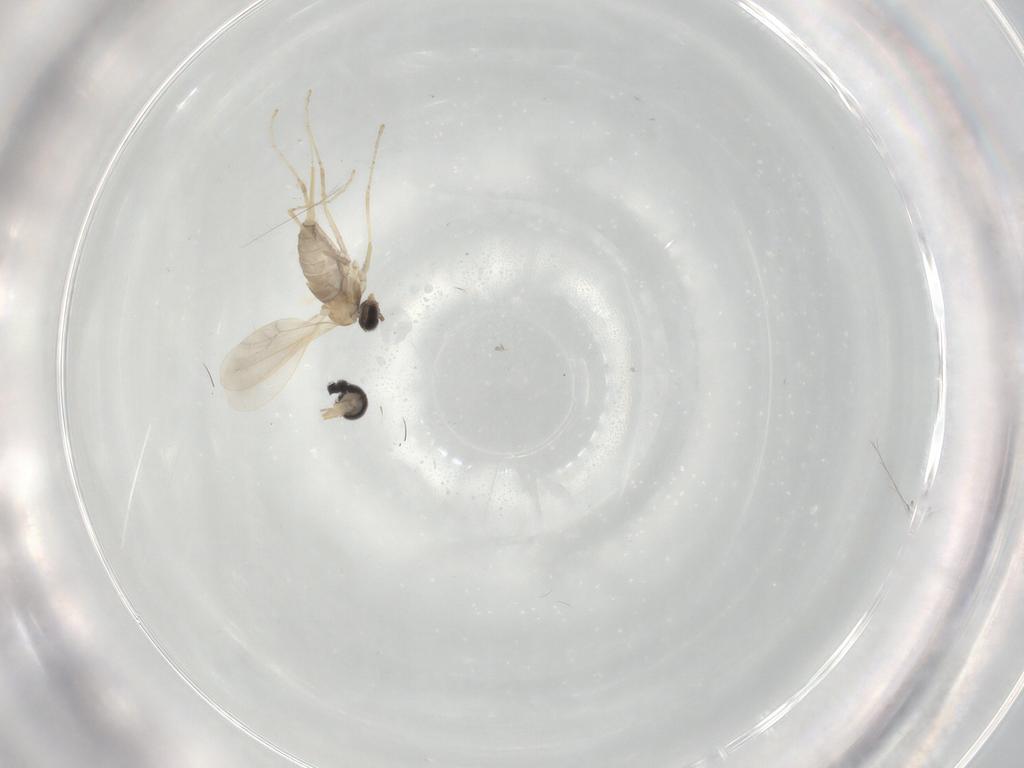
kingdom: Animalia
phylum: Arthropoda
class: Insecta
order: Diptera
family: Cecidomyiidae
